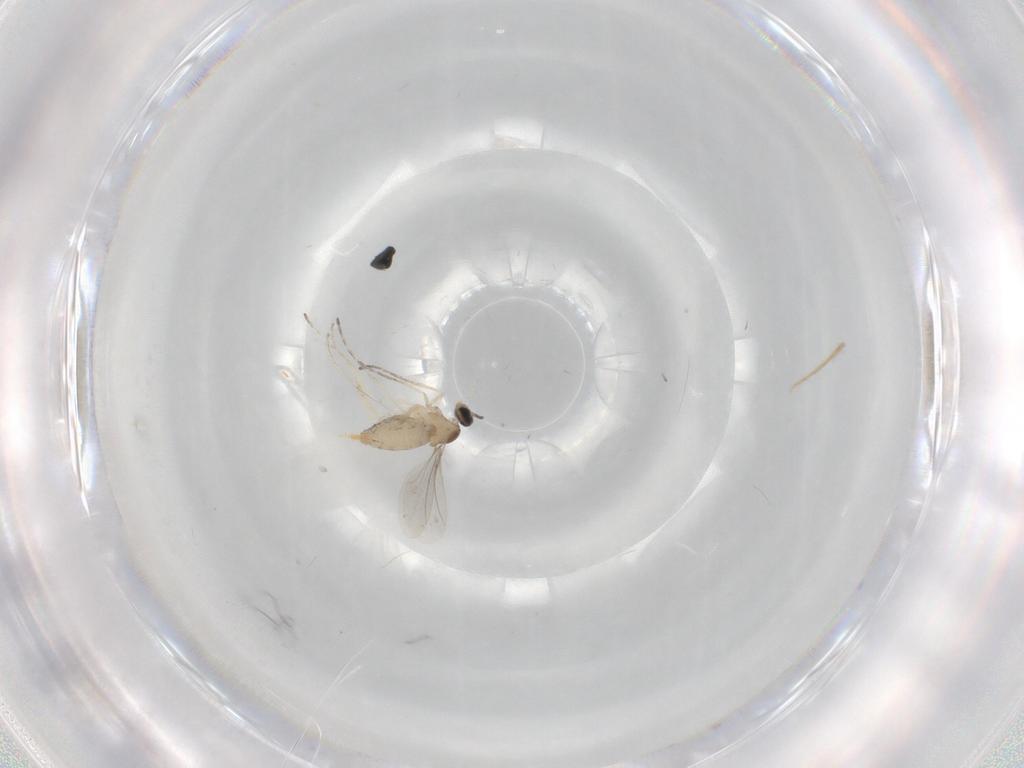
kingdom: Animalia
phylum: Arthropoda
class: Insecta
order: Diptera
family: Cecidomyiidae
